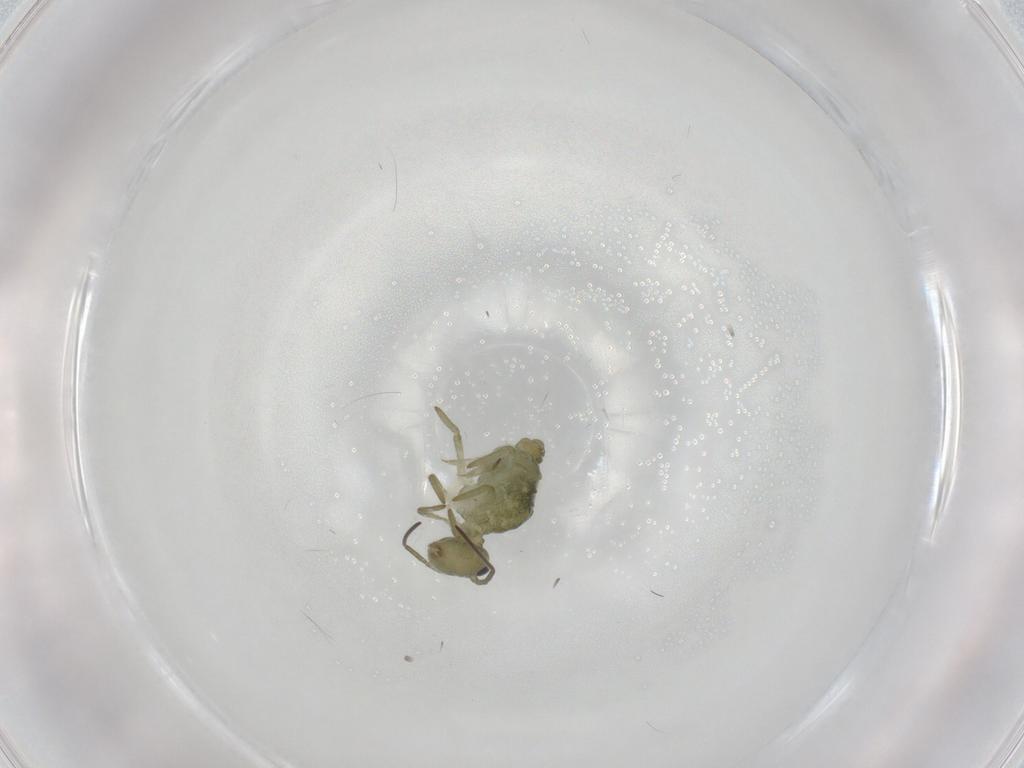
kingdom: Animalia
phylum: Arthropoda
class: Collembola
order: Symphypleona
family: Sminthuridae
